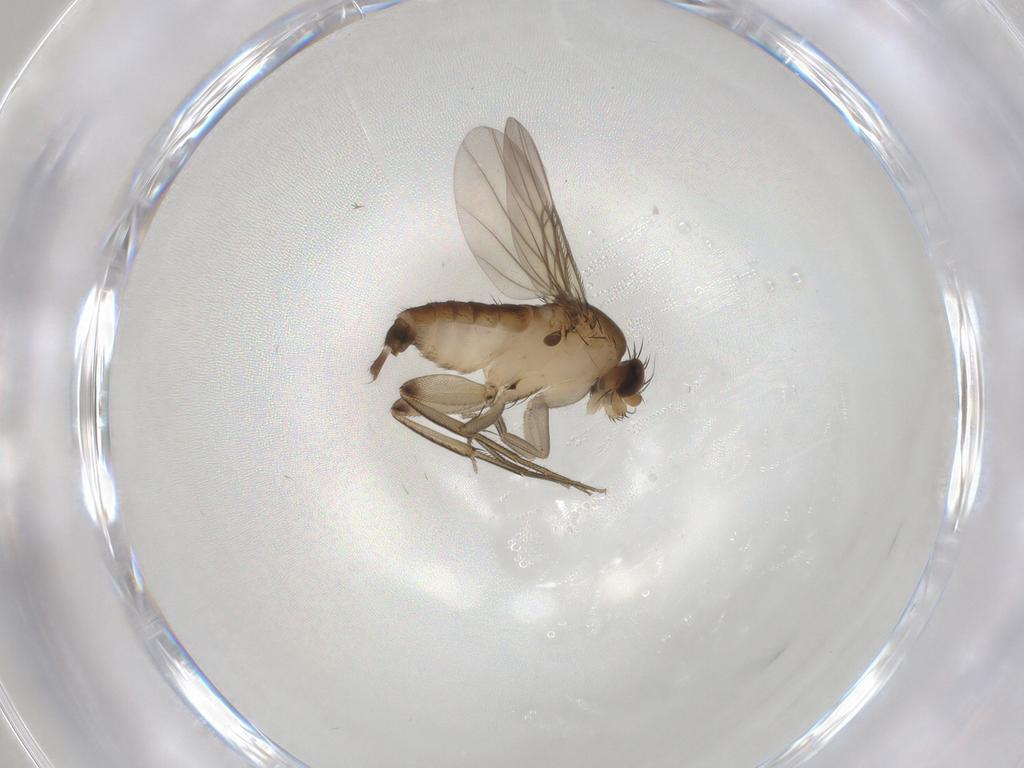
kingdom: Animalia
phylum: Arthropoda
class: Insecta
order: Diptera
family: Phoridae
